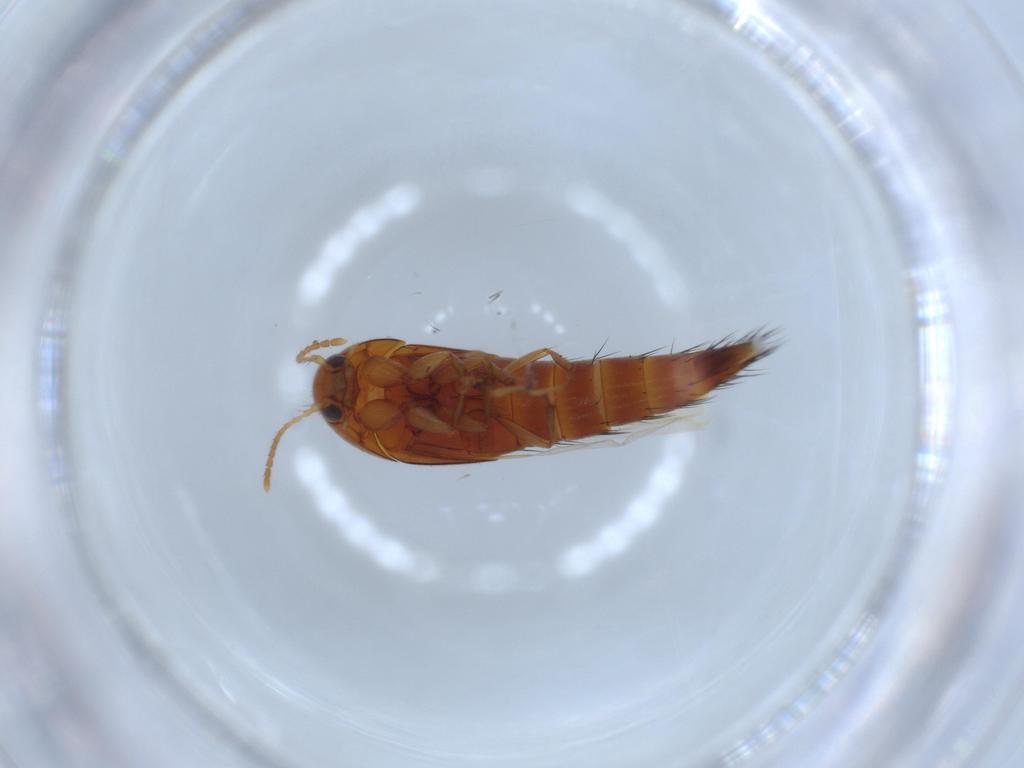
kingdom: Animalia
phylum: Arthropoda
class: Insecta
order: Coleoptera
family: Staphylinidae
